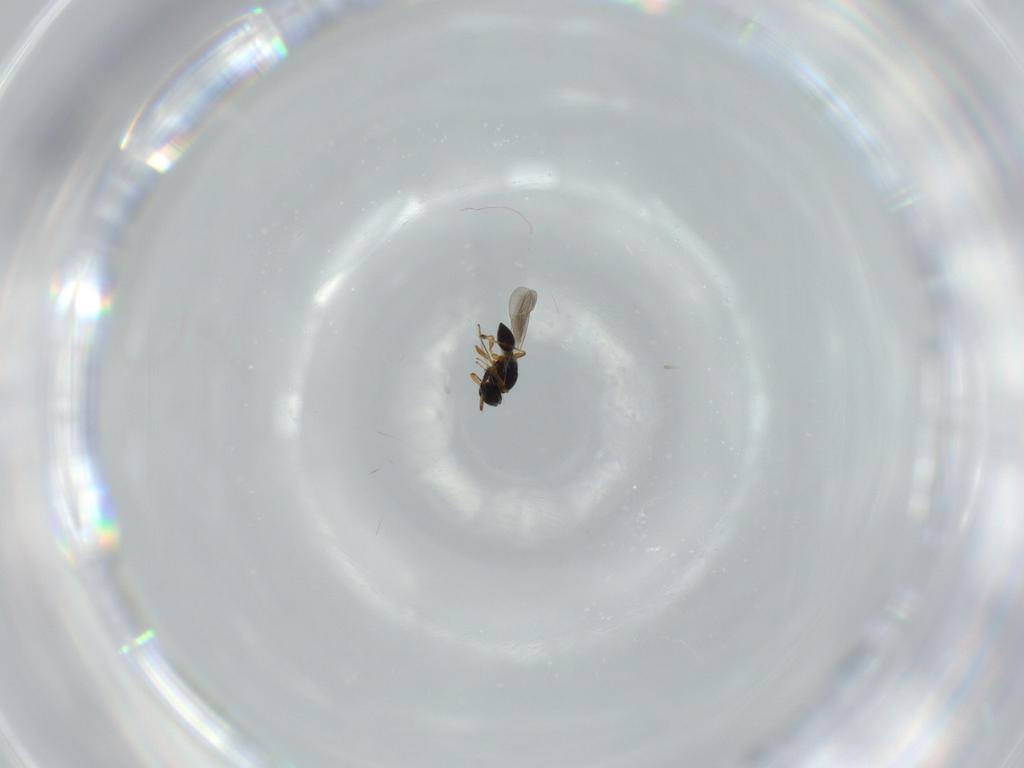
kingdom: Animalia
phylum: Arthropoda
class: Insecta
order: Hymenoptera
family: Platygastridae
